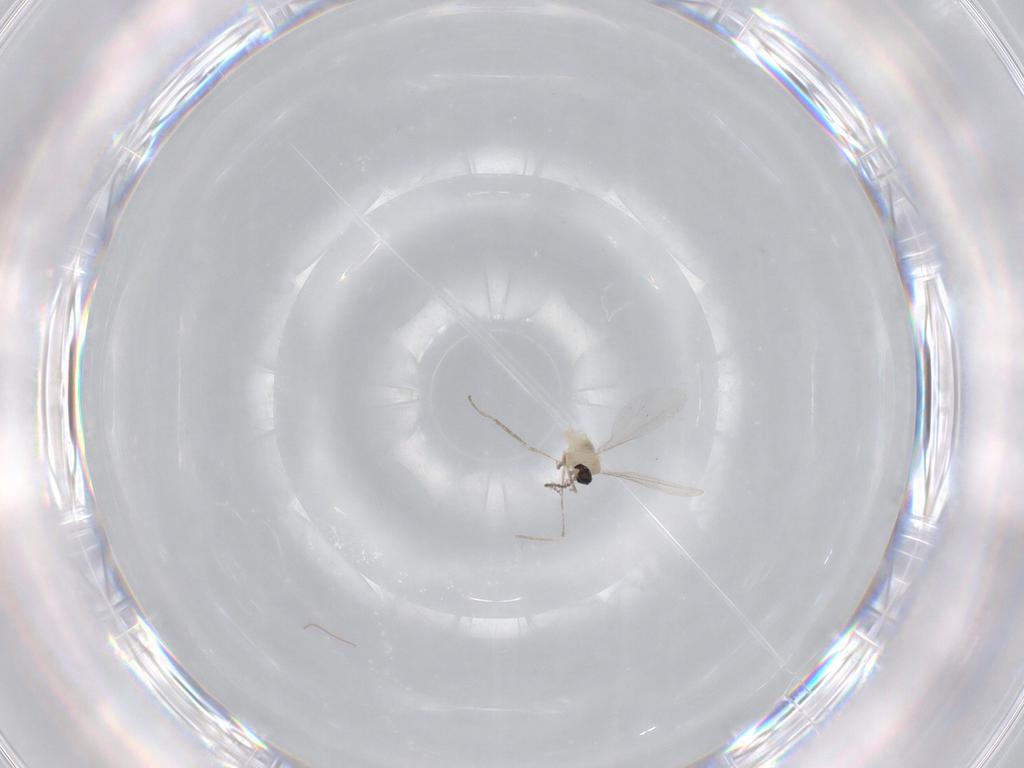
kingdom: Animalia
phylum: Arthropoda
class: Insecta
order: Diptera
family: Cecidomyiidae
